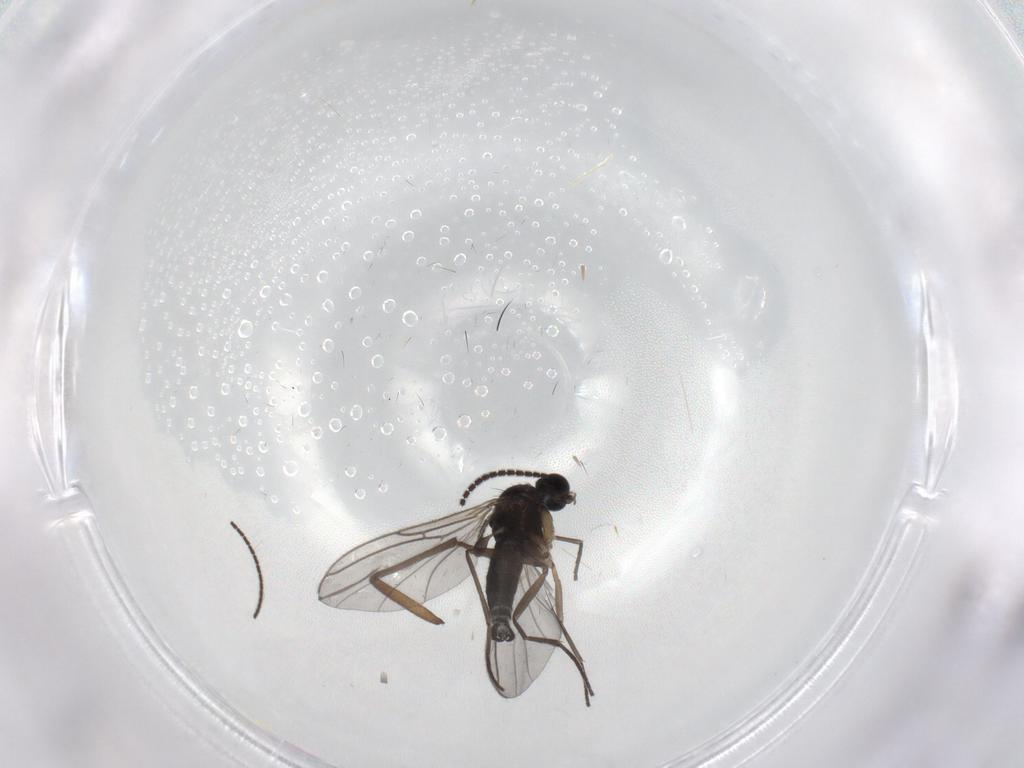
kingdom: Animalia
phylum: Arthropoda
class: Insecta
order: Diptera
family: Sciaridae
